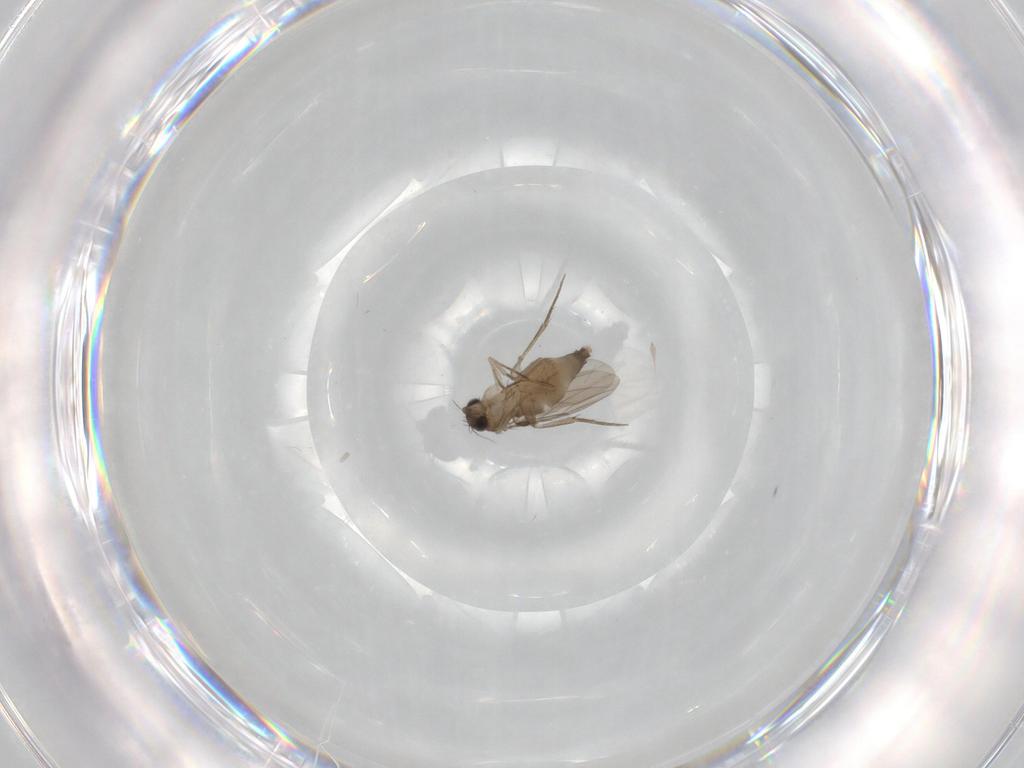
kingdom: Animalia
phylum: Arthropoda
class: Insecta
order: Diptera
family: Phoridae
